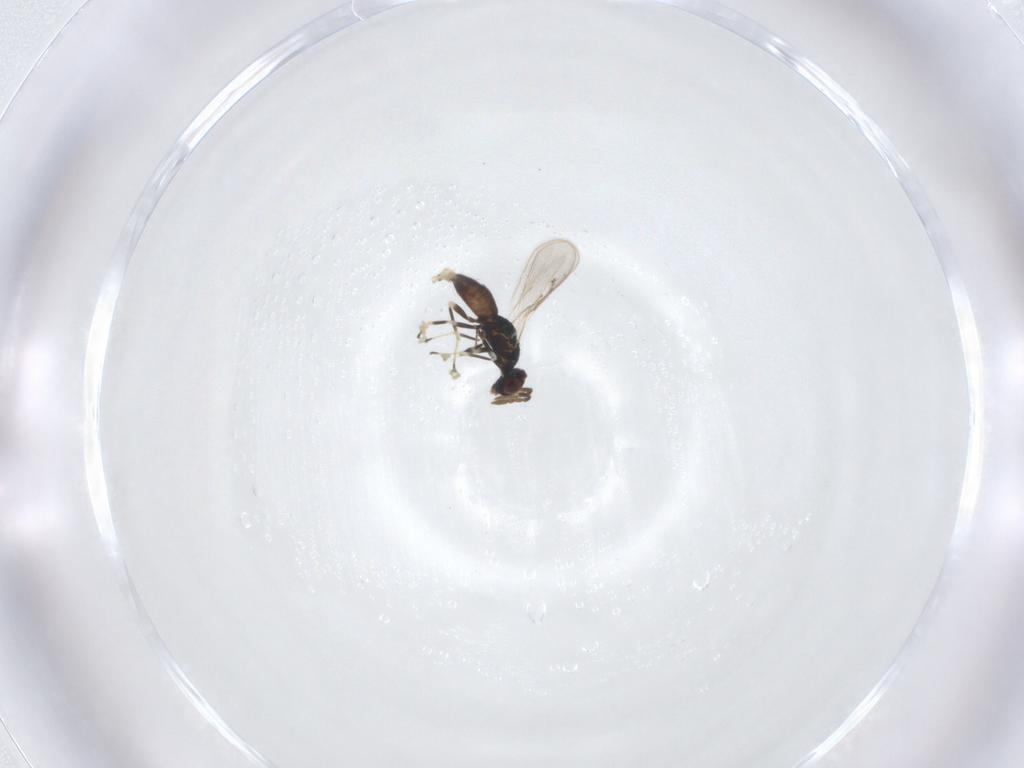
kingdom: Animalia
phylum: Arthropoda
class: Insecta
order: Hymenoptera
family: Eulophidae
